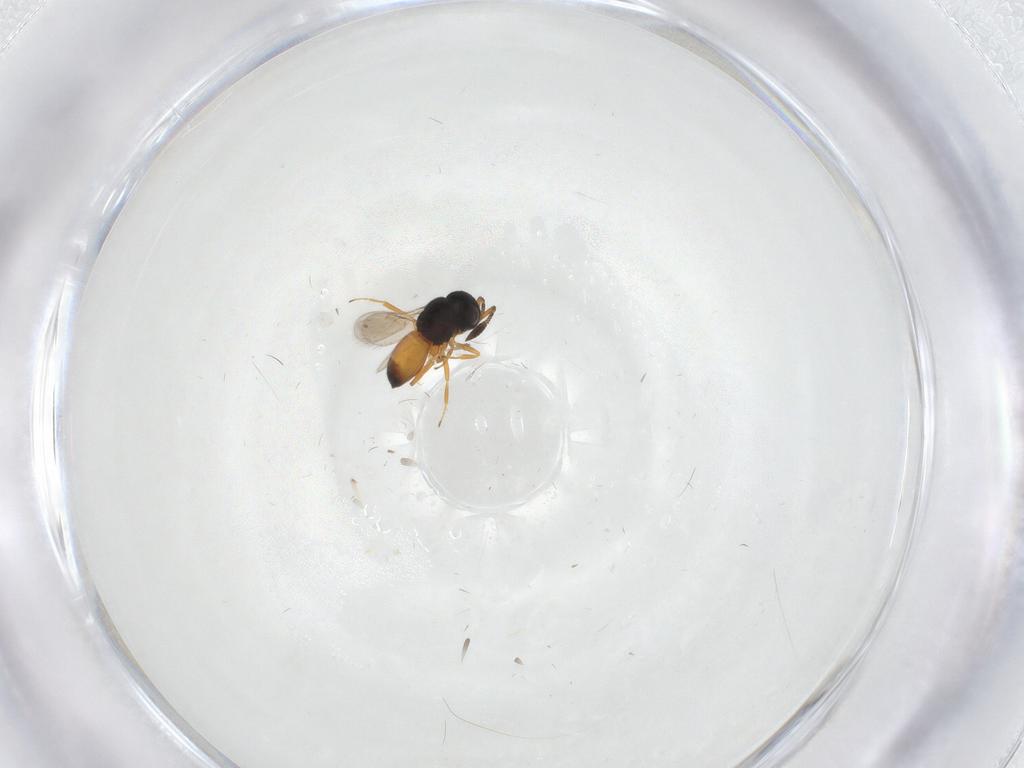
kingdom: Animalia
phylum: Arthropoda
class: Insecta
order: Hymenoptera
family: Scelionidae
